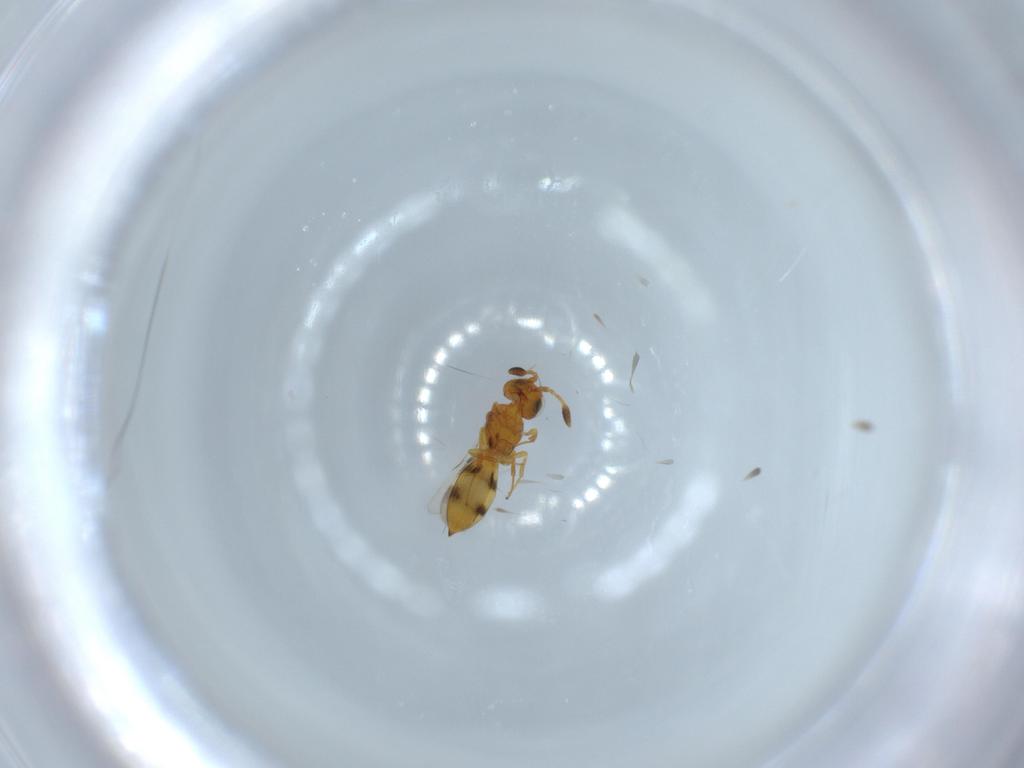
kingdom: Animalia
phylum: Arthropoda
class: Insecta
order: Hymenoptera
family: Scelionidae
